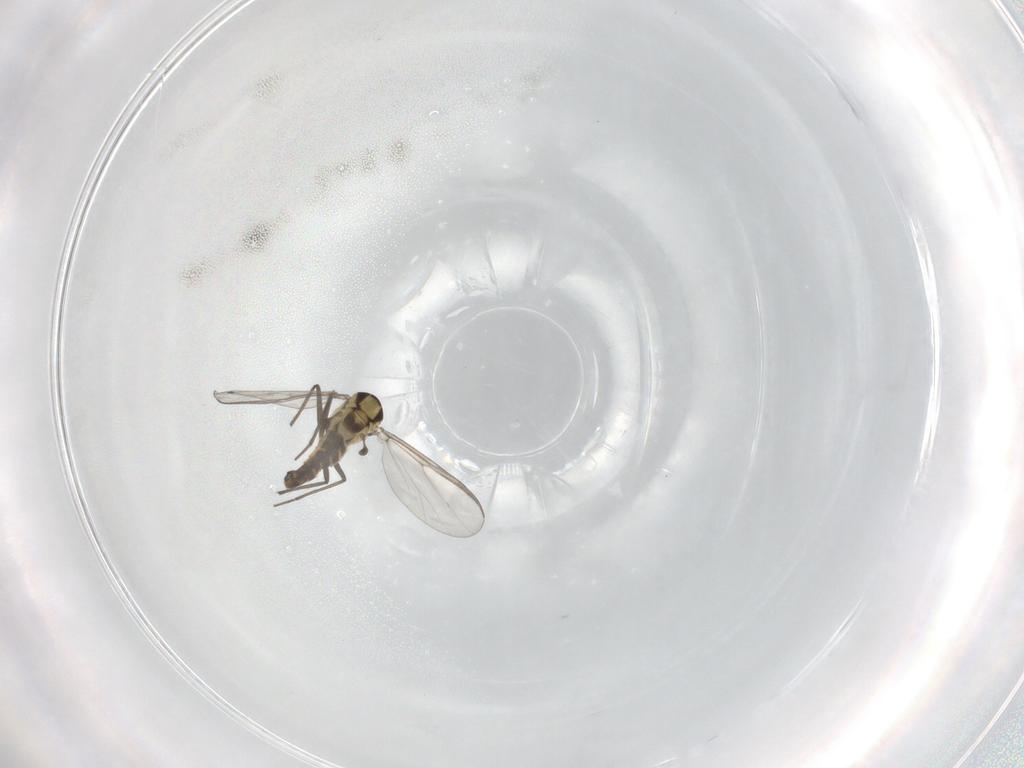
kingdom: Animalia
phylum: Arthropoda
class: Insecta
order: Diptera
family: Chironomidae
